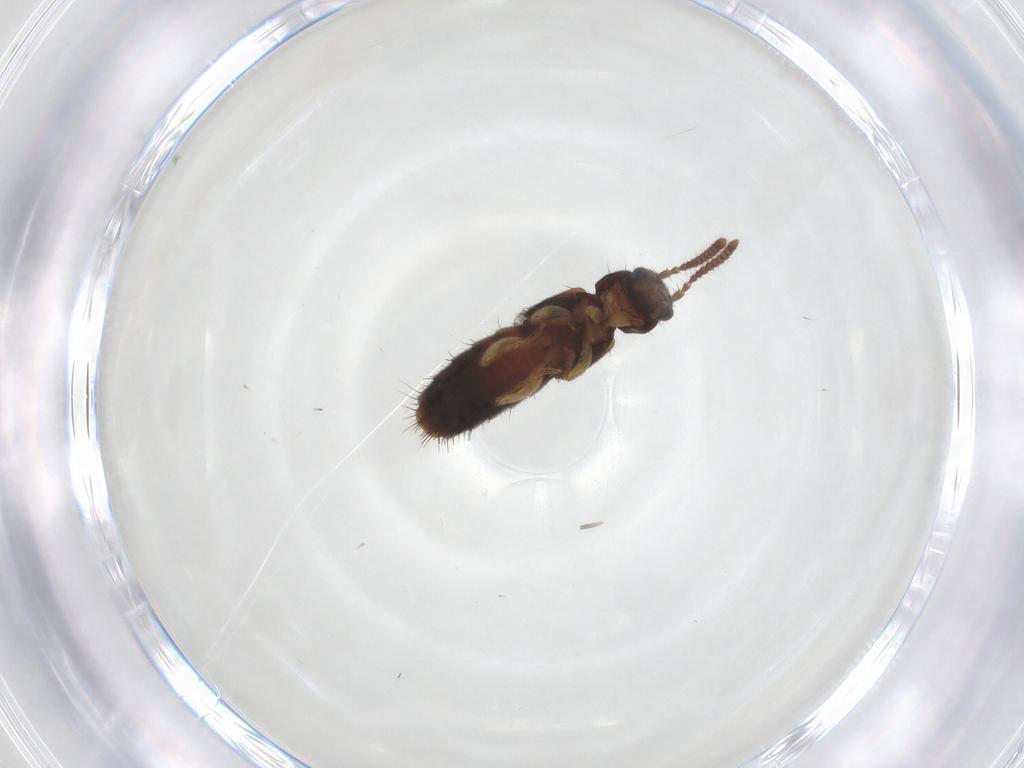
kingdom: Animalia
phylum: Arthropoda
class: Insecta
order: Coleoptera
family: Staphylinidae
